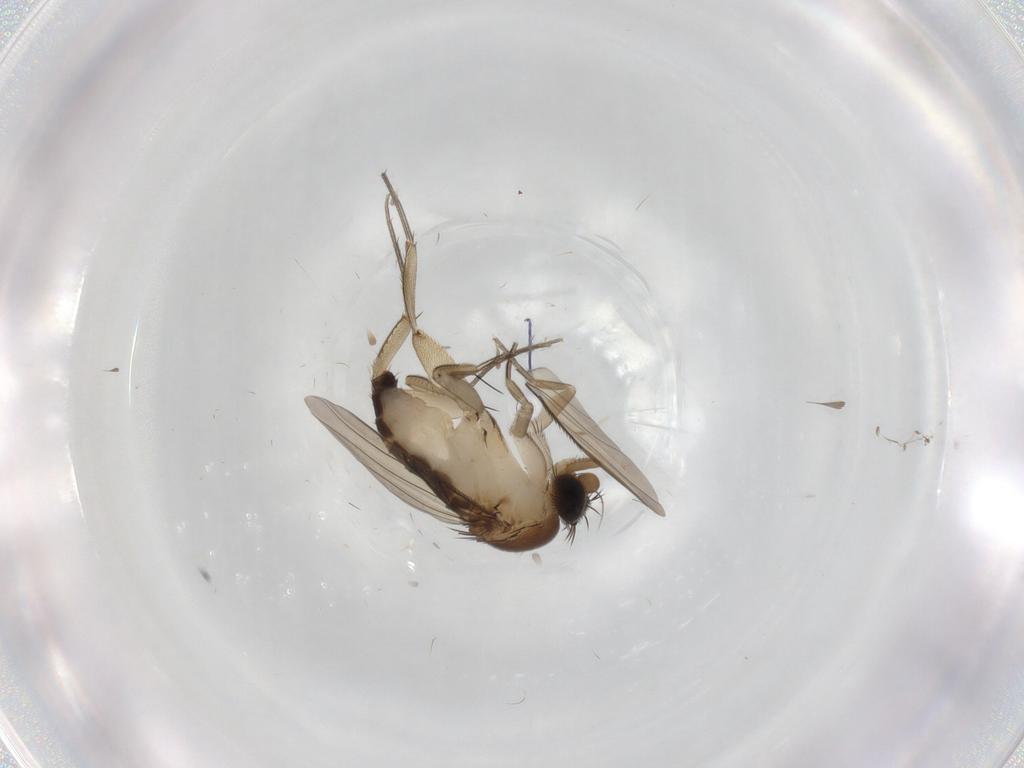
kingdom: Animalia
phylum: Arthropoda
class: Insecta
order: Diptera
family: Phoridae
